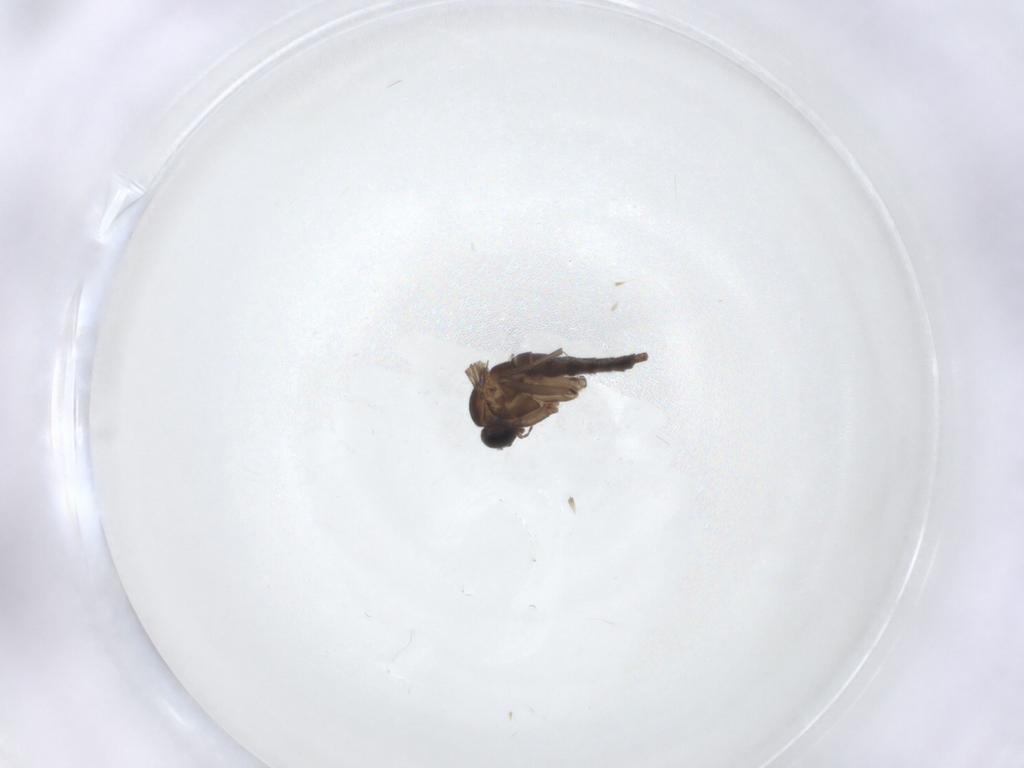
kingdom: Animalia
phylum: Arthropoda
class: Insecta
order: Diptera
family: Sciaridae
